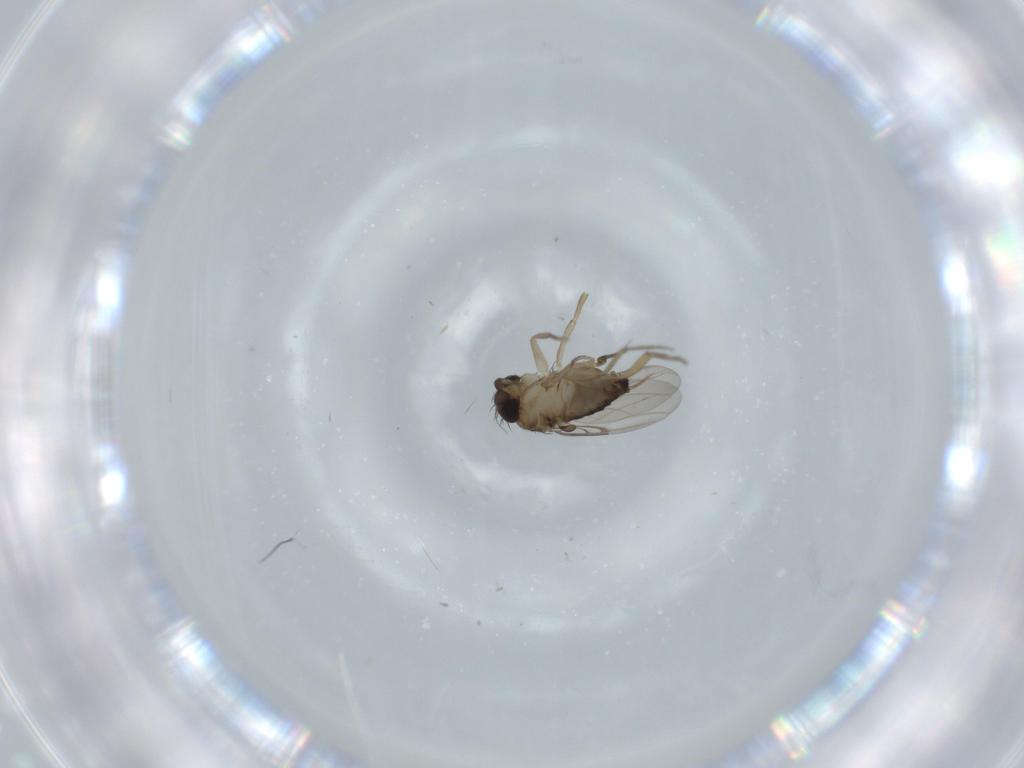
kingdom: Animalia
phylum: Arthropoda
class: Insecta
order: Diptera
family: Phoridae
